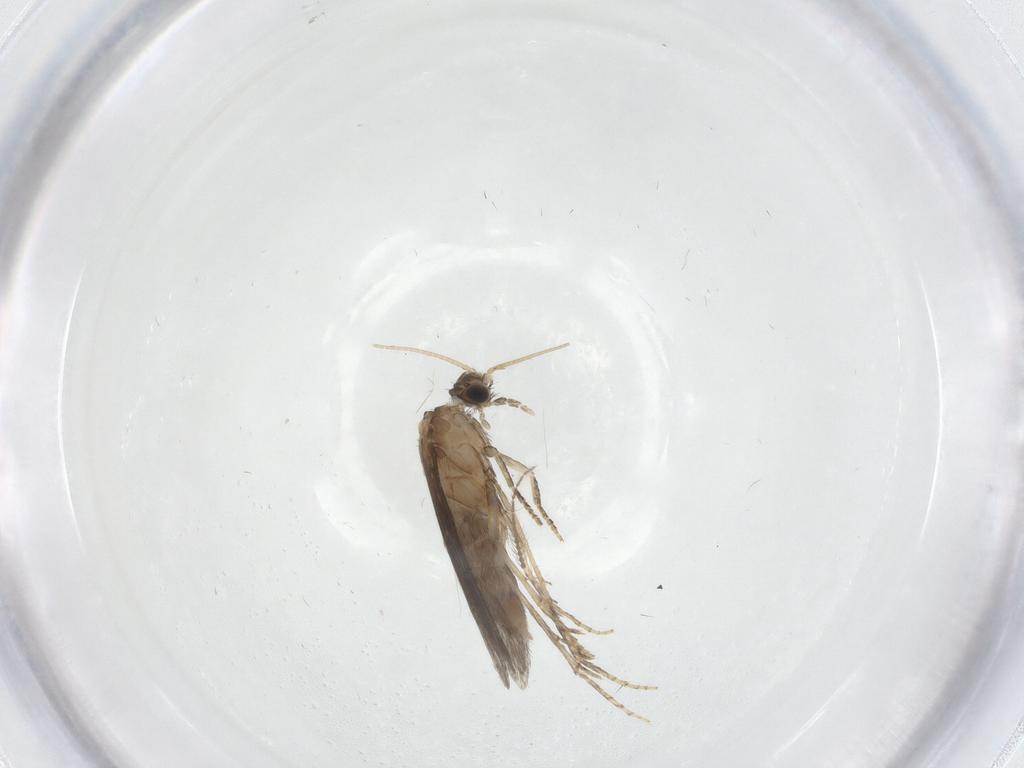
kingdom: Animalia
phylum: Arthropoda
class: Insecta
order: Trichoptera
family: Hydroptilidae
